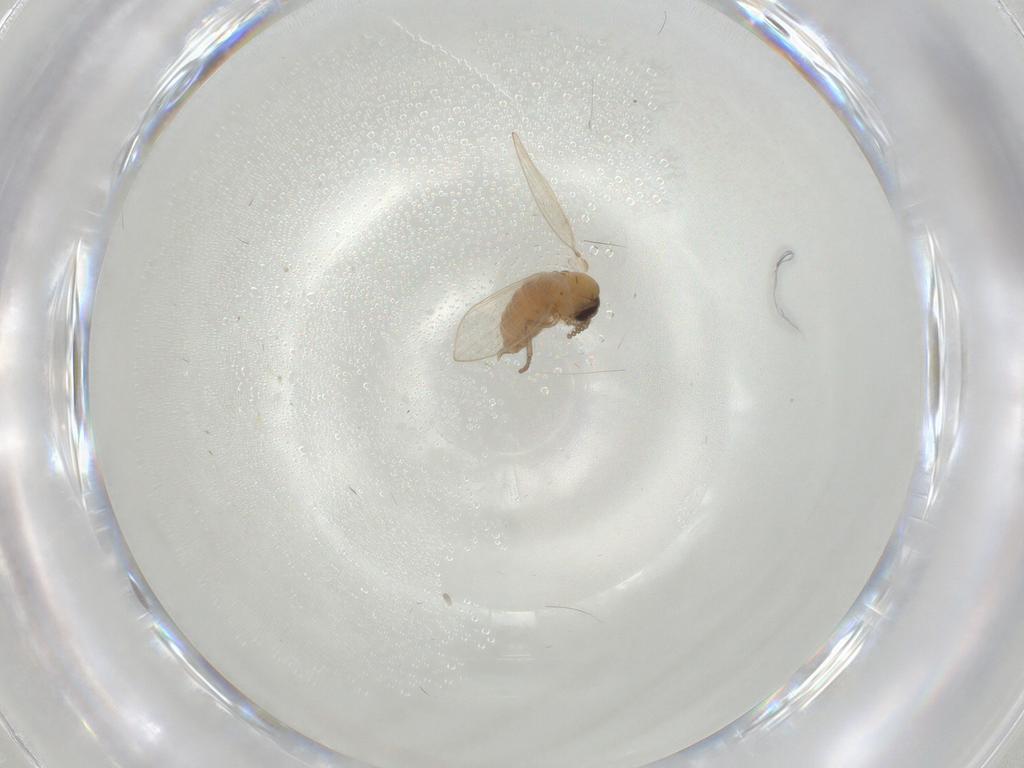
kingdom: Animalia
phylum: Arthropoda
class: Insecta
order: Diptera
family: Psychodidae
